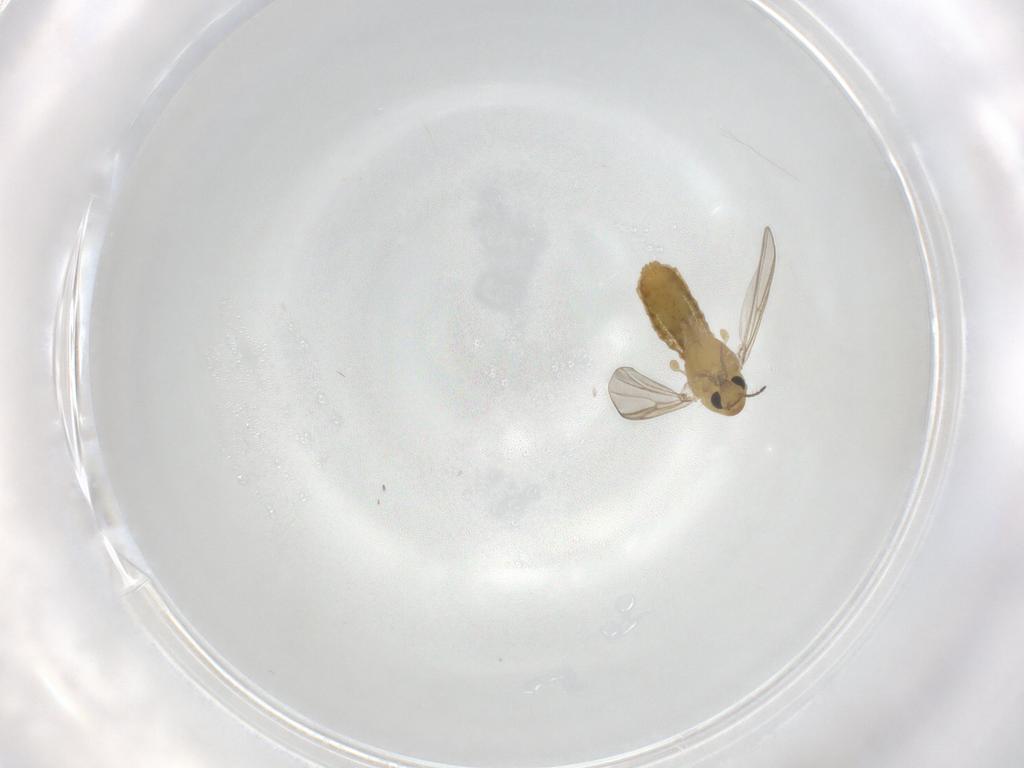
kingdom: Animalia
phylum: Arthropoda
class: Insecta
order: Diptera
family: Chironomidae
